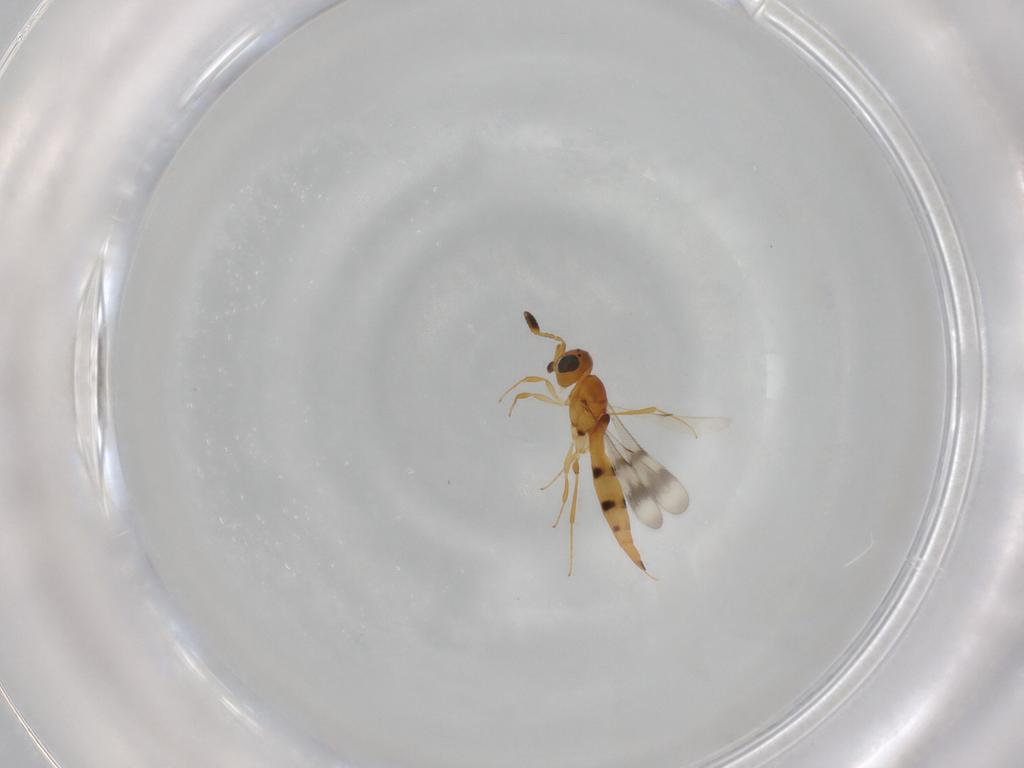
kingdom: Animalia
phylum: Arthropoda
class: Insecta
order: Hymenoptera
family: Scelionidae
